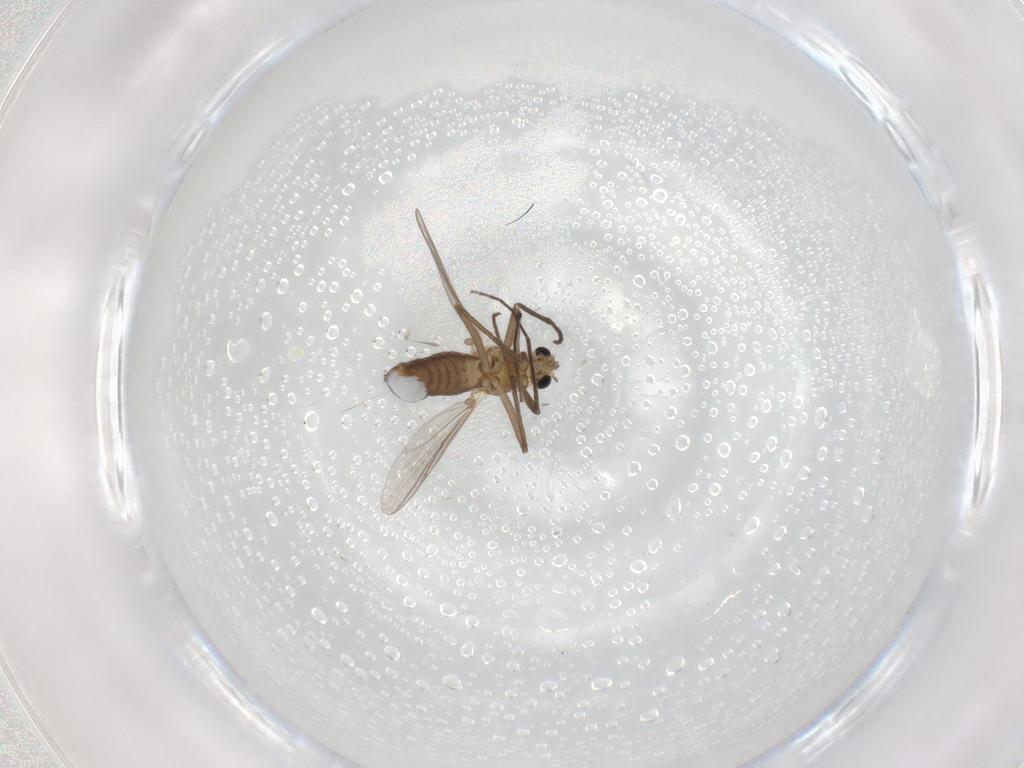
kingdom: Animalia
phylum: Arthropoda
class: Insecta
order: Diptera
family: Chironomidae
